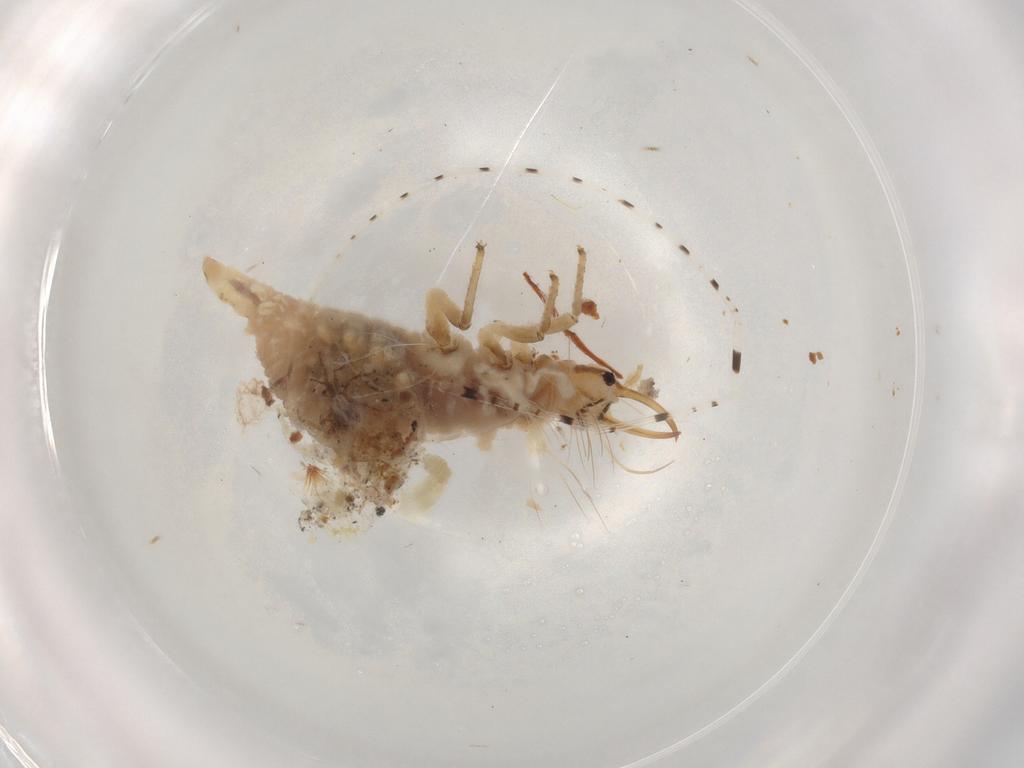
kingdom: Animalia
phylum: Arthropoda
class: Insecta
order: Neuroptera
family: Chrysopidae
